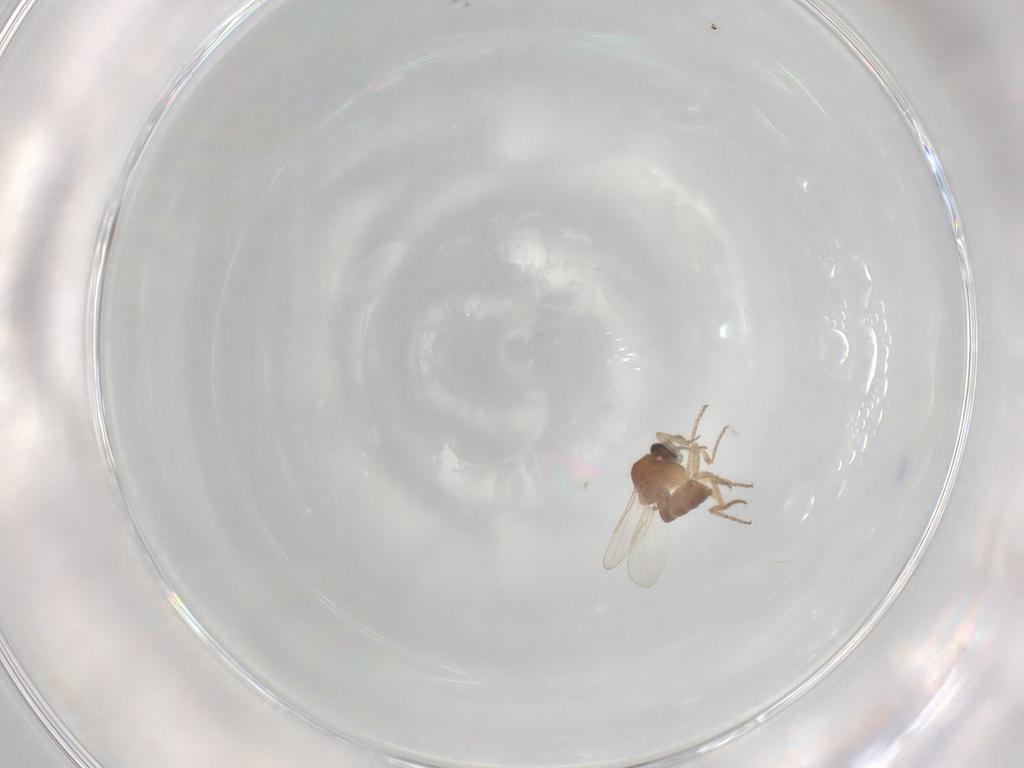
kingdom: Animalia
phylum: Arthropoda
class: Insecta
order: Diptera
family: Ceratopogonidae
